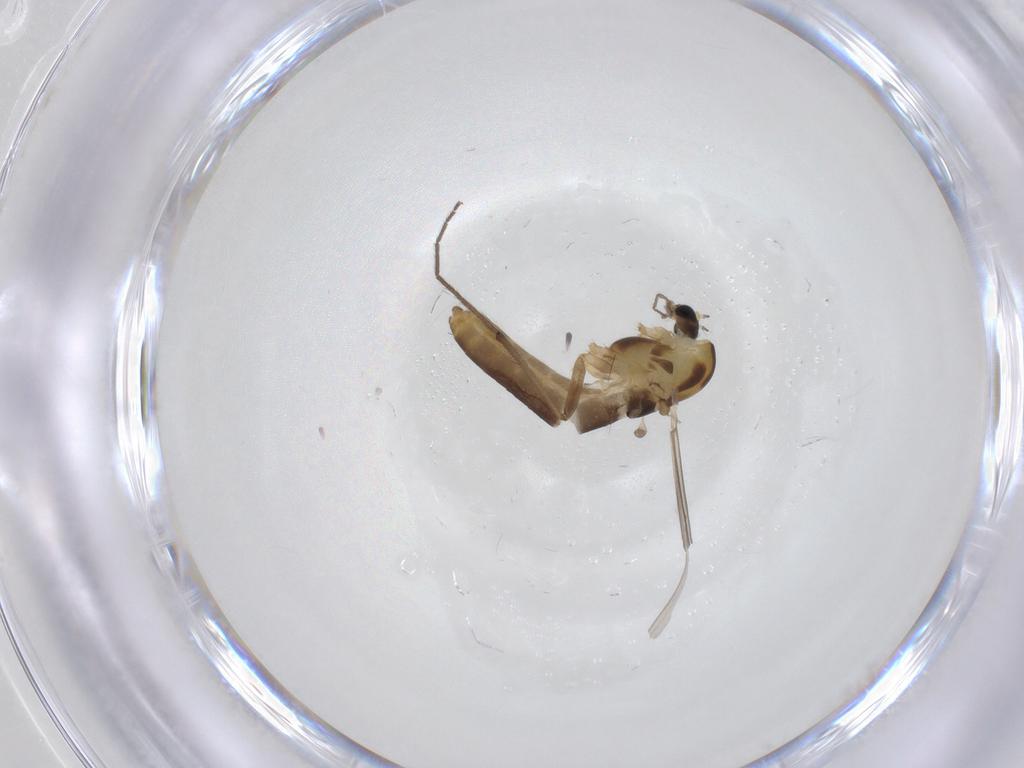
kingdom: Animalia
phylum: Arthropoda
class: Insecta
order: Diptera
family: Chironomidae
